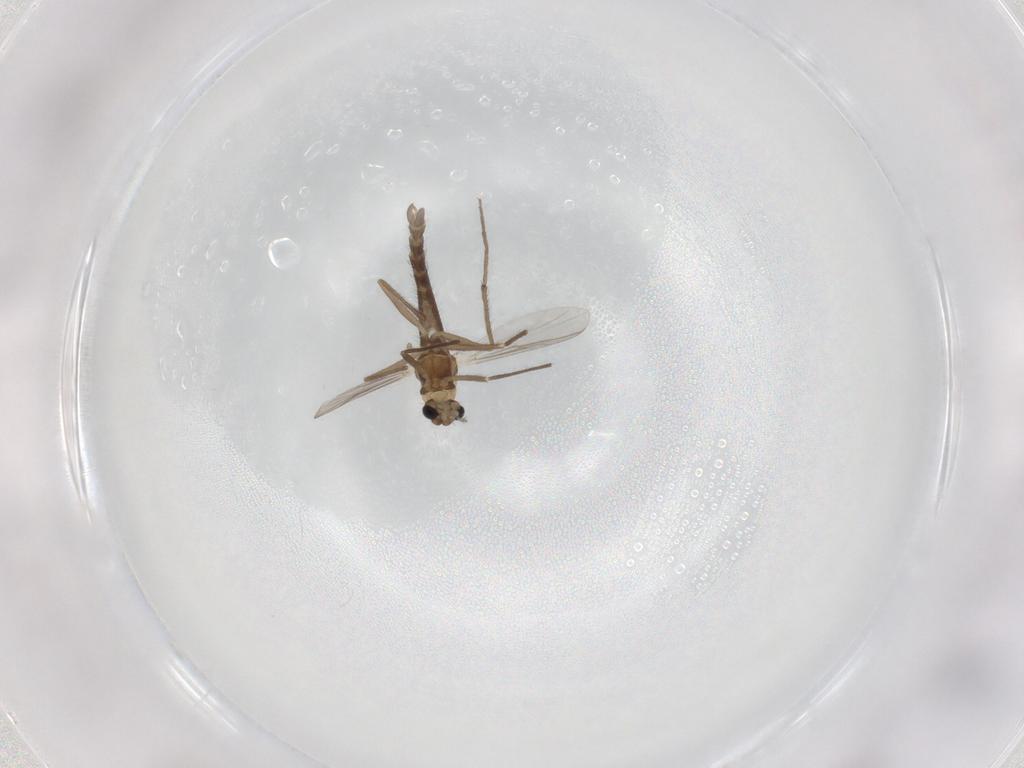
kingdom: Animalia
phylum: Arthropoda
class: Insecta
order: Diptera
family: Chironomidae
